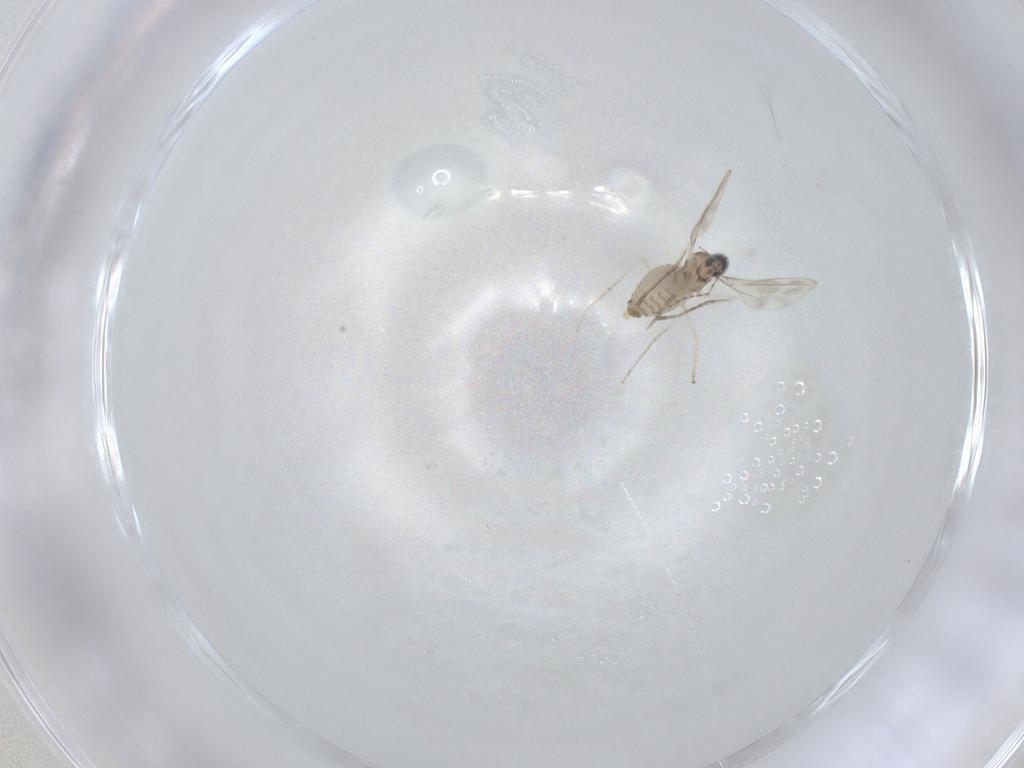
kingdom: Animalia
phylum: Arthropoda
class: Insecta
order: Diptera
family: Cecidomyiidae
